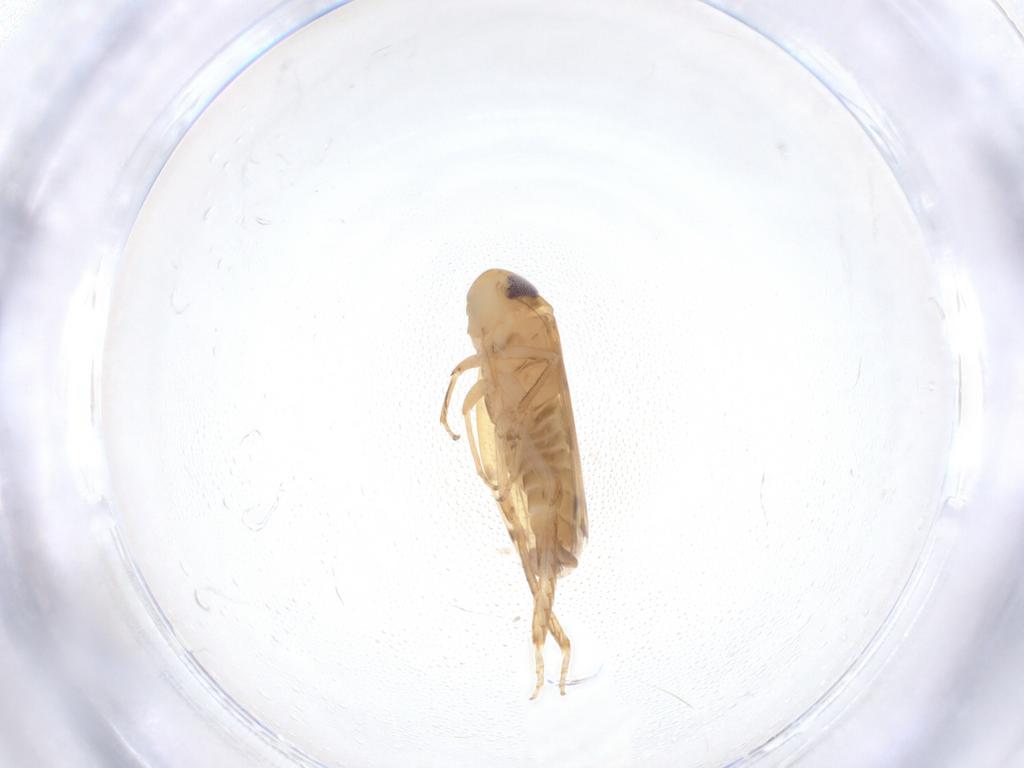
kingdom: Animalia
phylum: Arthropoda
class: Insecta
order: Hemiptera
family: Cicadellidae
